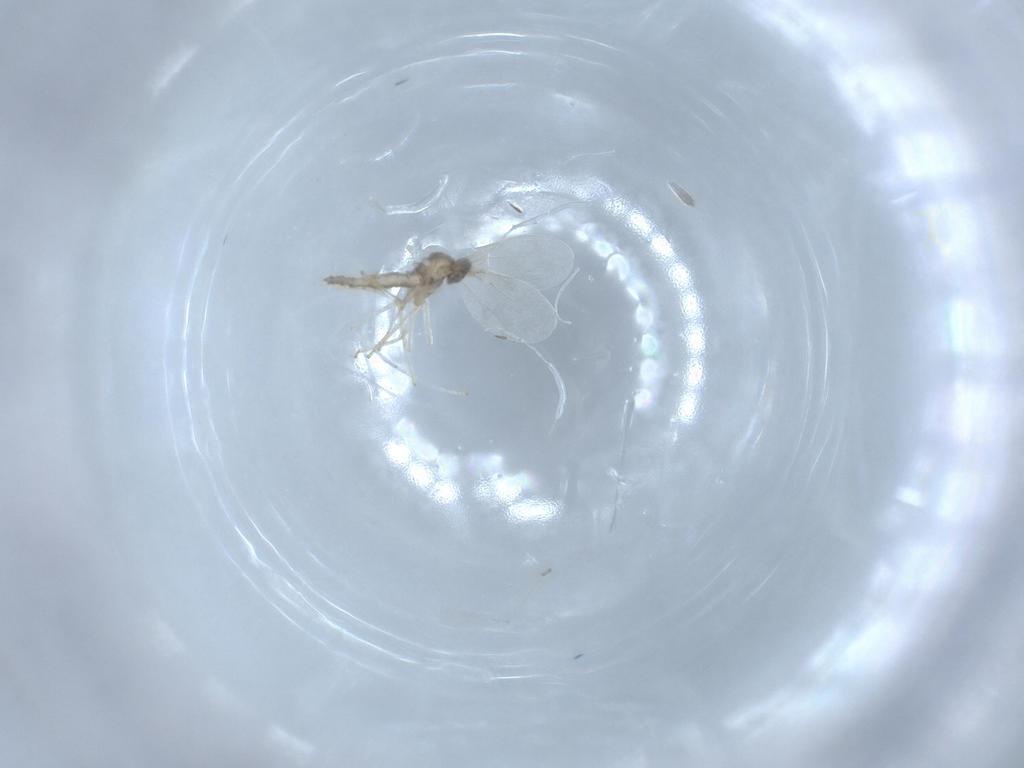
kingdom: Animalia
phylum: Arthropoda
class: Insecta
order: Diptera
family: Cecidomyiidae
